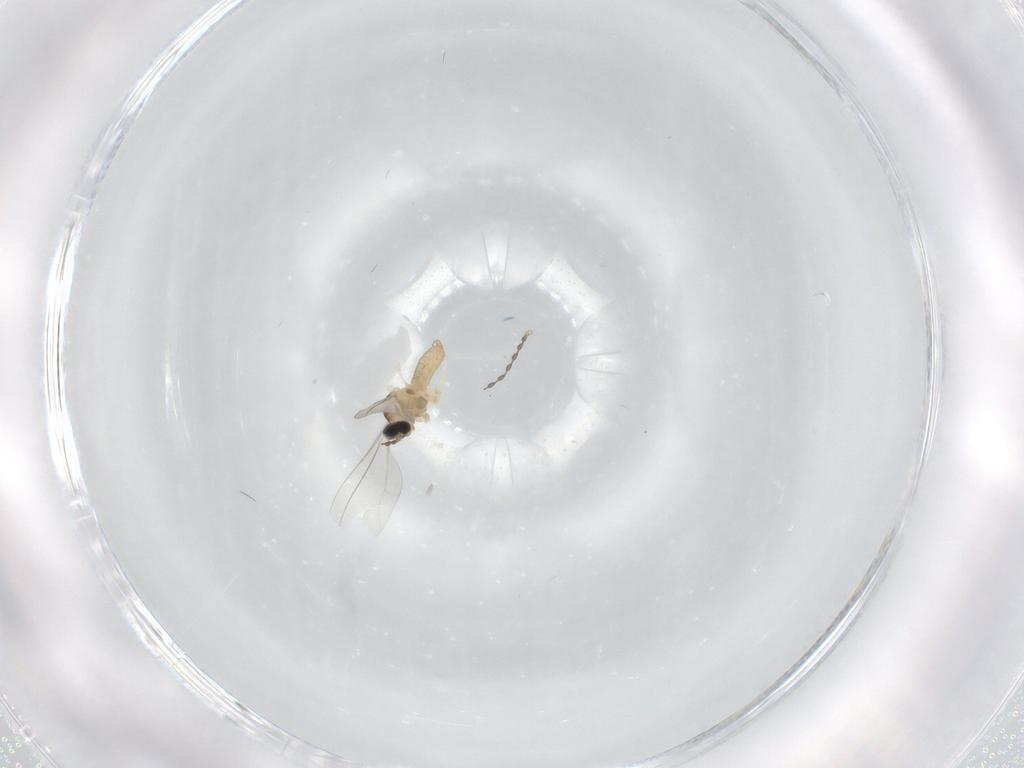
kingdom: Animalia
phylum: Arthropoda
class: Insecta
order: Diptera
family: Cecidomyiidae
